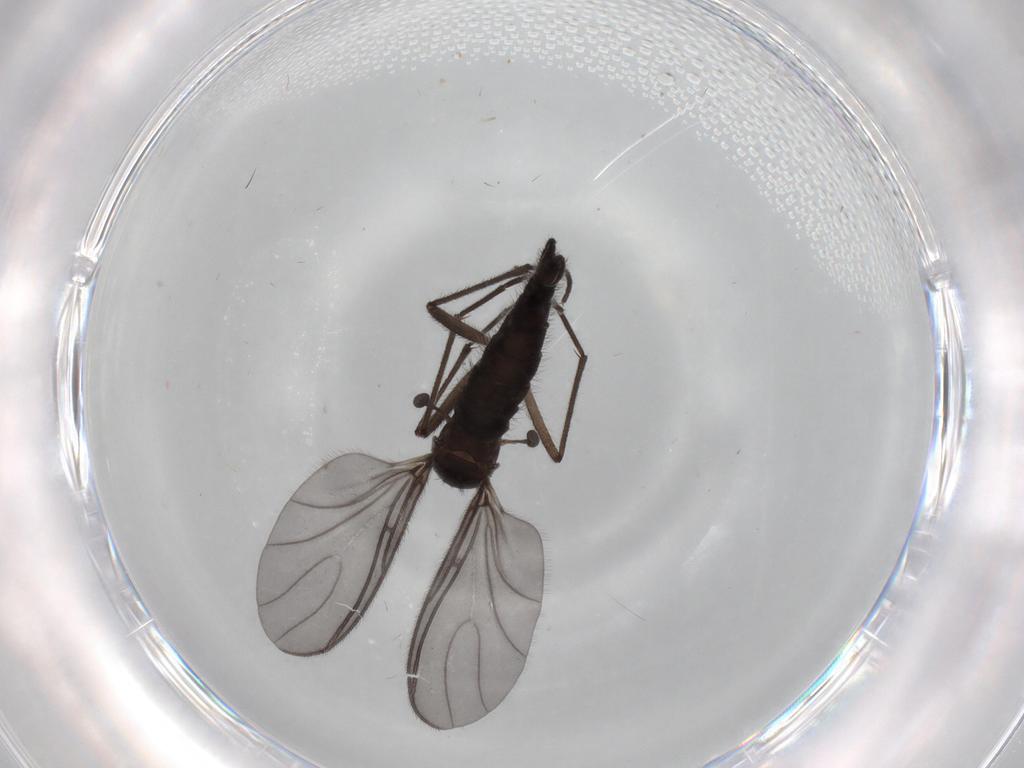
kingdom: Animalia
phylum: Arthropoda
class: Insecta
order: Diptera
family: Sciaridae
